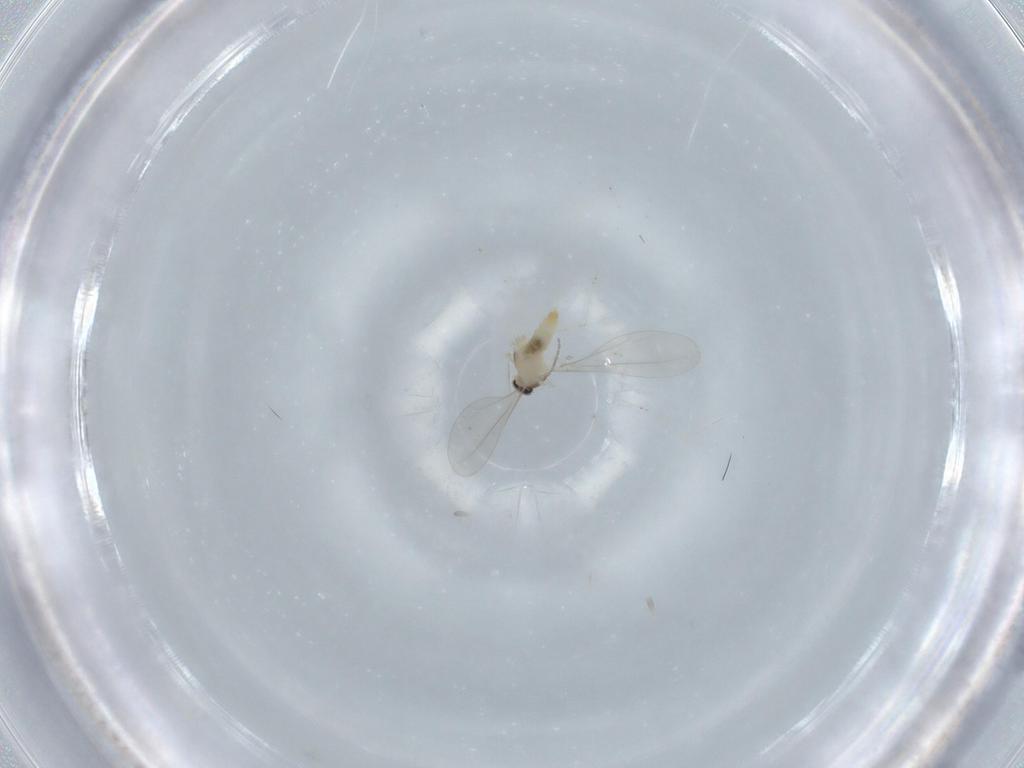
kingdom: Animalia
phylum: Arthropoda
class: Insecta
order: Diptera
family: Cecidomyiidae
